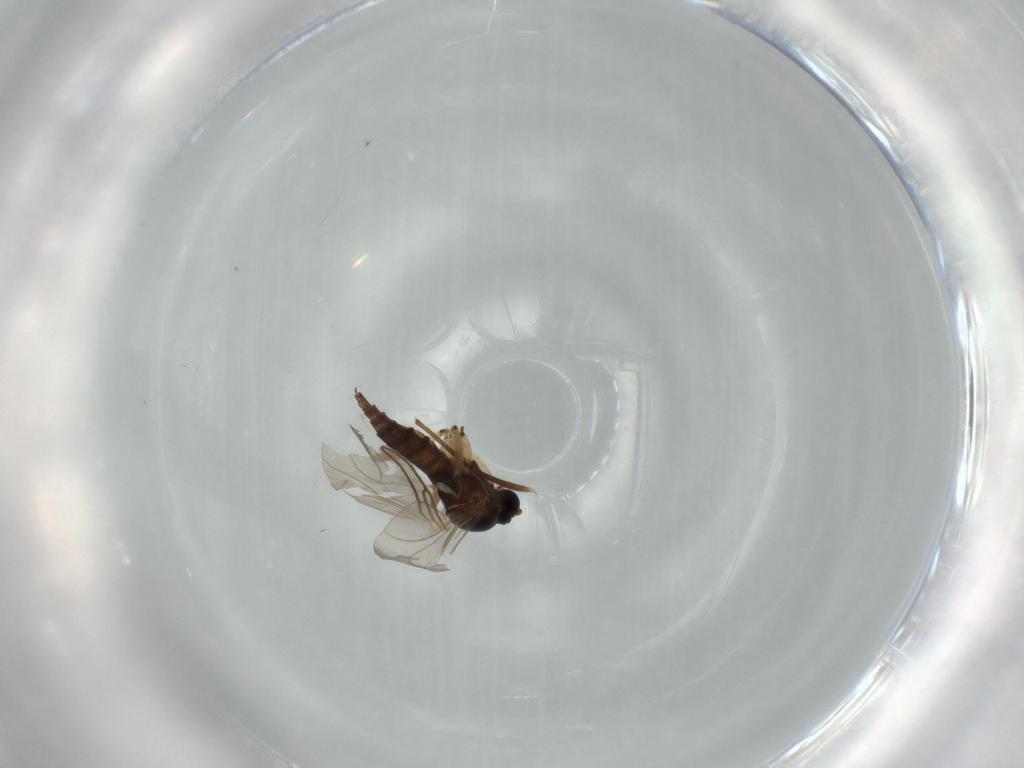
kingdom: Animalia
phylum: Arthropoda
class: Insecta
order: Diptera
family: Sciaridae
